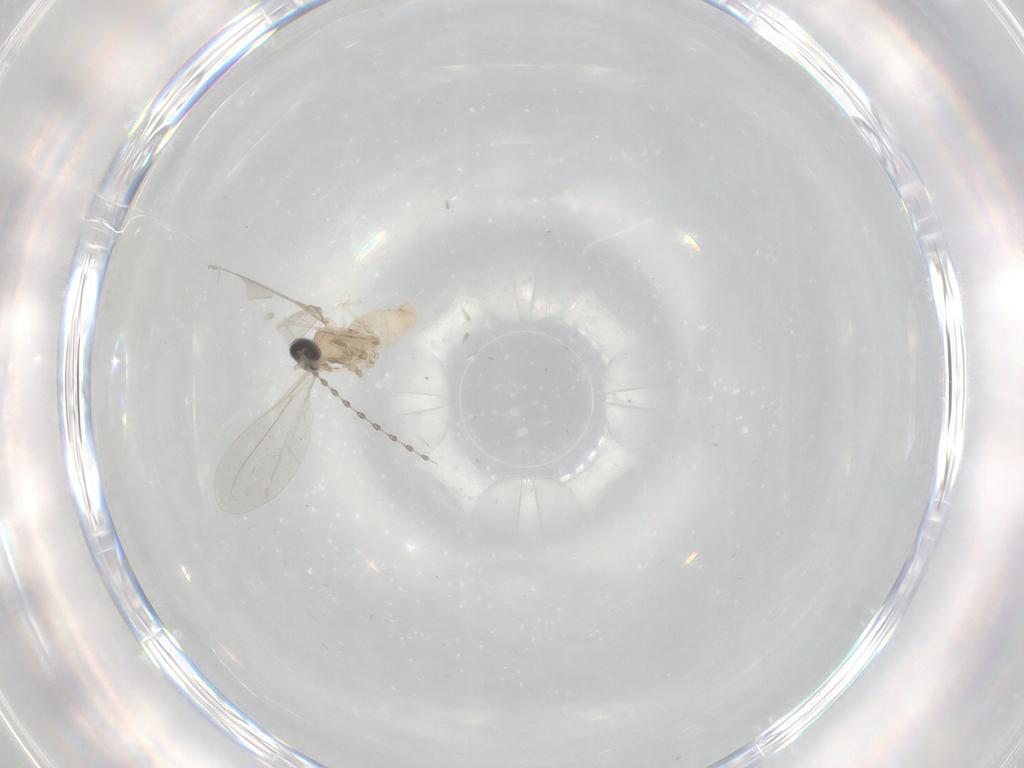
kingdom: Animalia
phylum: Arthropoda
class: Insecta
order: Diptera
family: Cecidomyiidae
